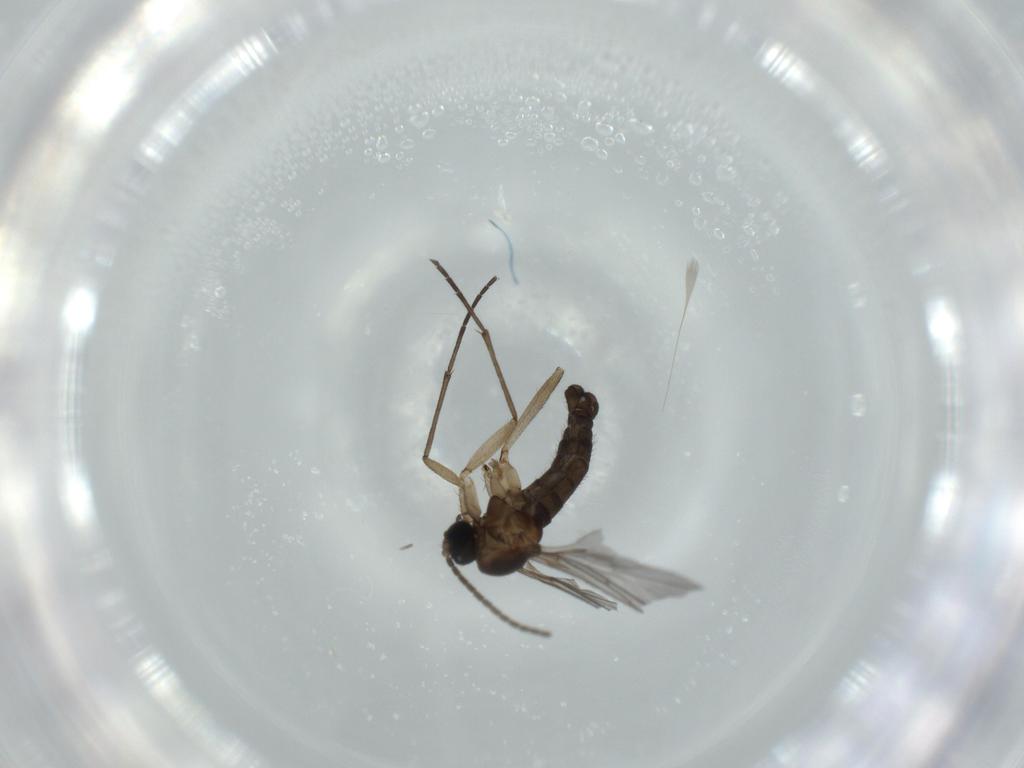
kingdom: Animalia
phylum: Arthropoda
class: Insecta
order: Diptera
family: Sciaridae
